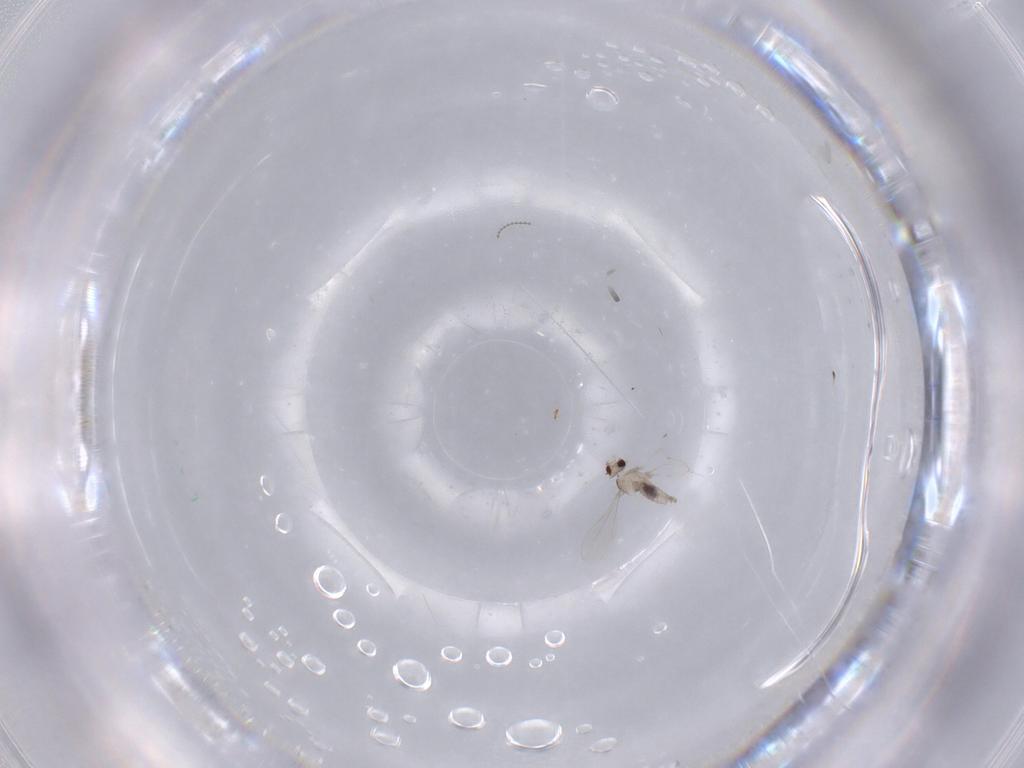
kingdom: Animalia
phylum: Arthropoda
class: Insecta
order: Diptera
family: Cecidomyiidae
